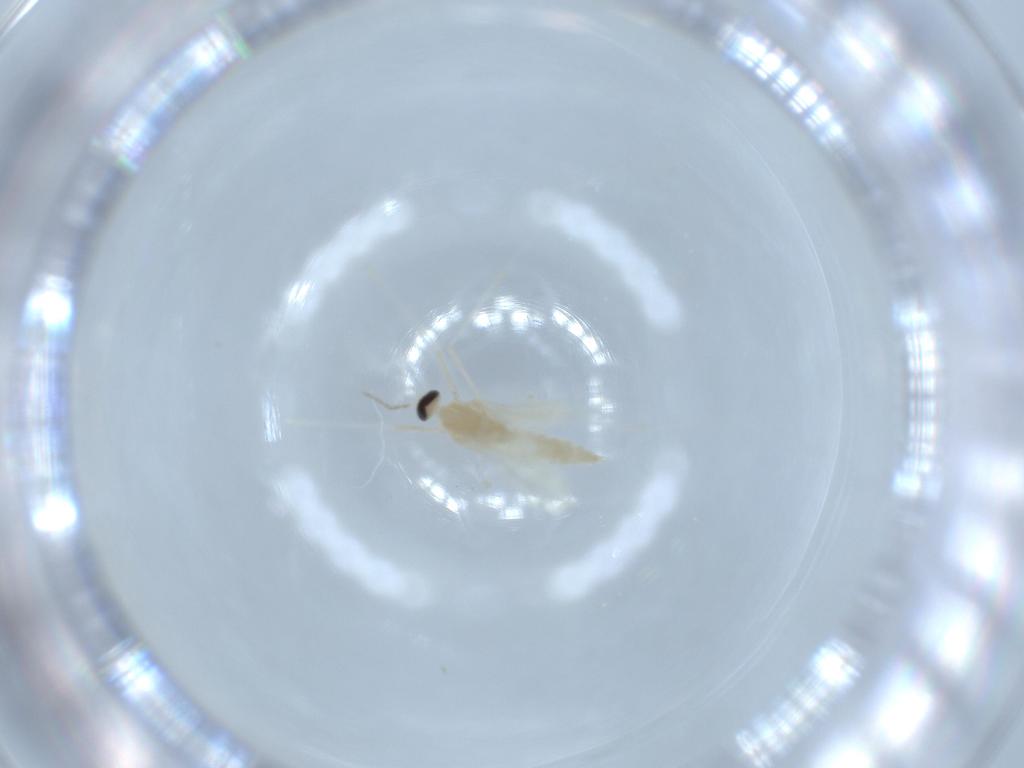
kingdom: Animalia
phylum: Arthropoda
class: Insecta
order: Diptera
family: Cecidomyiidae
